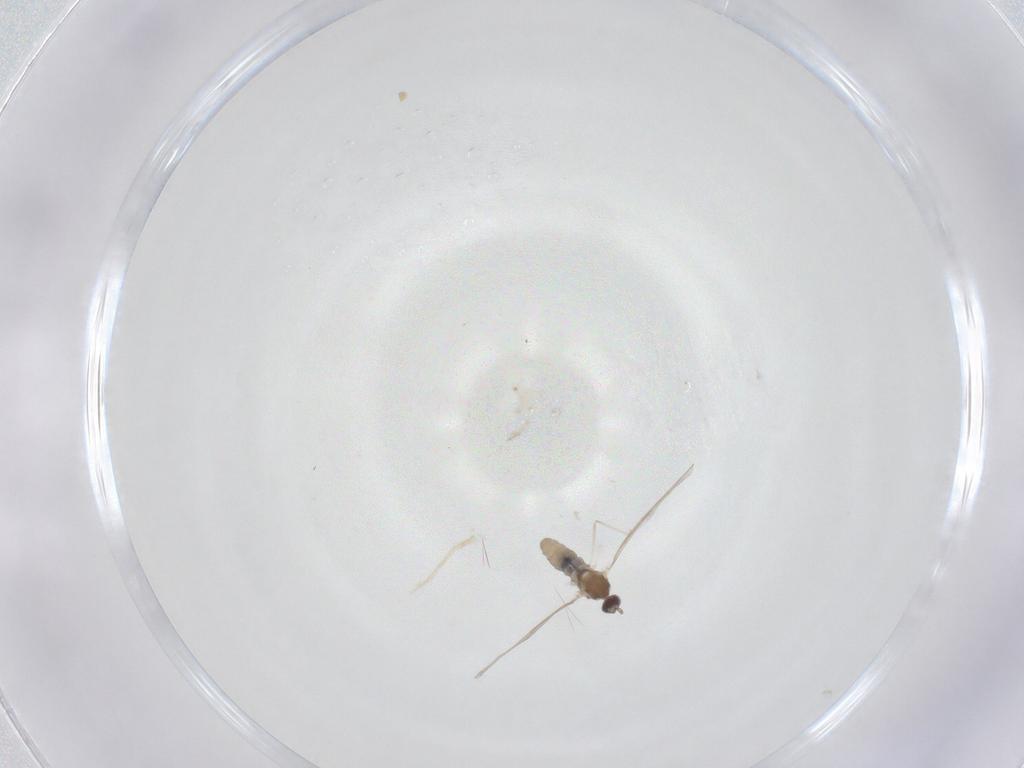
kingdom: Animalia
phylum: Arthropoda
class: Insecta
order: Diptera
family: Cecidomyiidae
